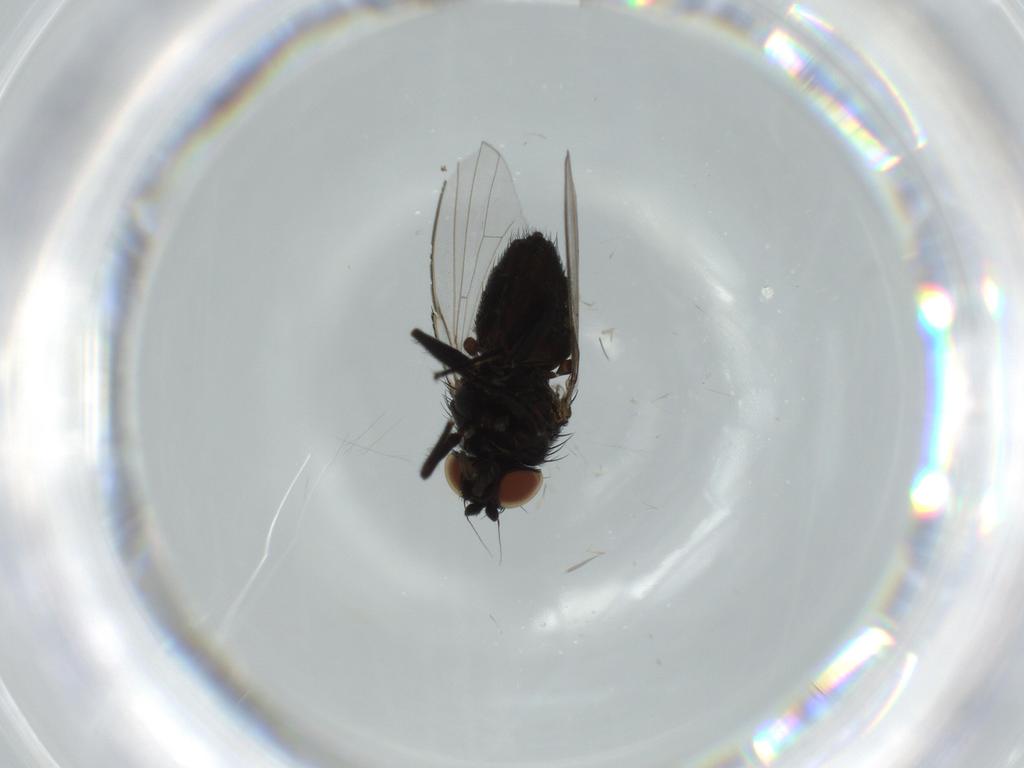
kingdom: Animalia
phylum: Arthropoda
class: Insecta
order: Diptera
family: Milichiidae
